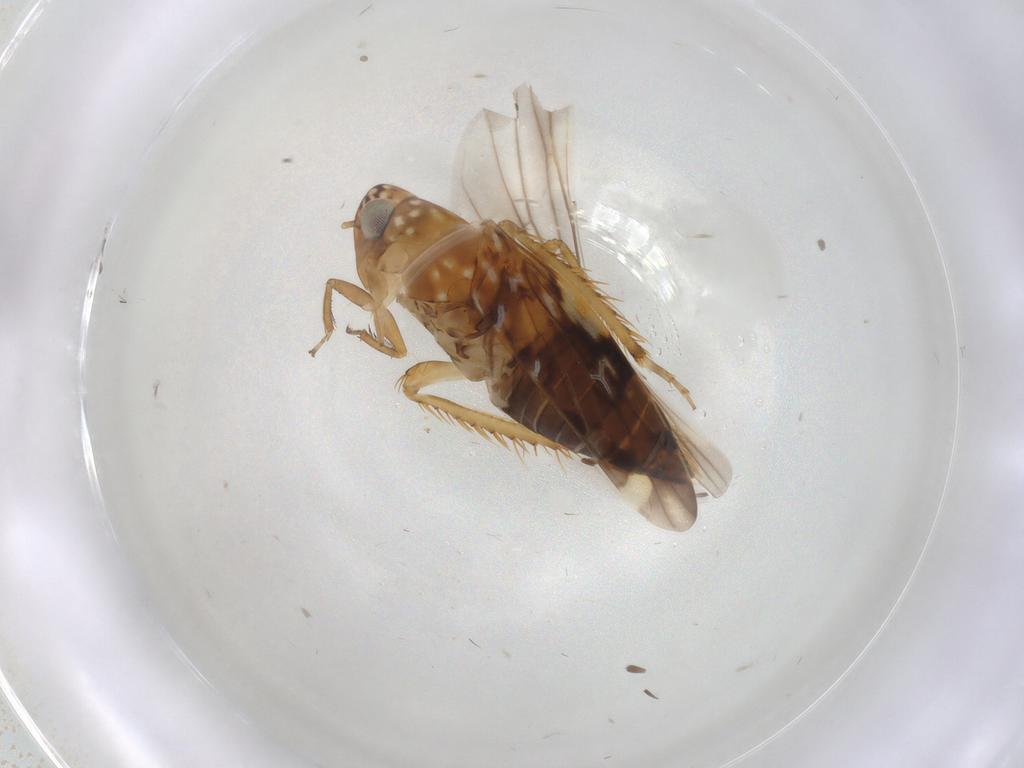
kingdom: Animalia
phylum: Arthropoda
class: Insecta
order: Hemiptera
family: Cicadellidae
